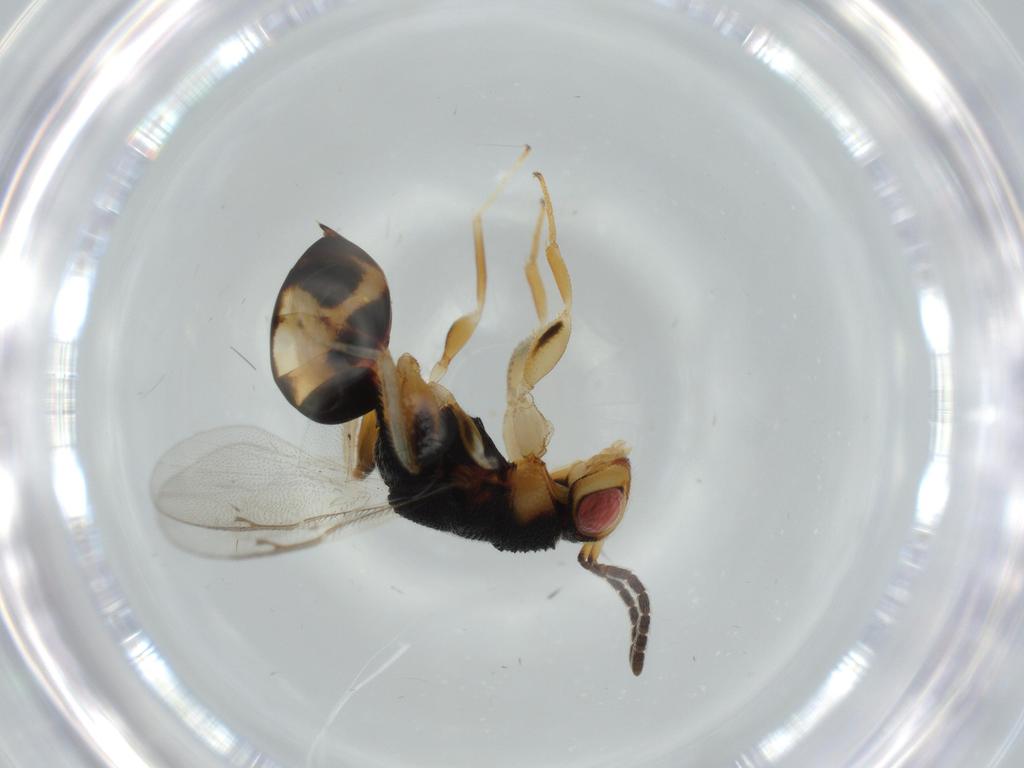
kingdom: Animalia
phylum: Arthropoda
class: Insecta
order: Hymenoptera
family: Eurytomidae
